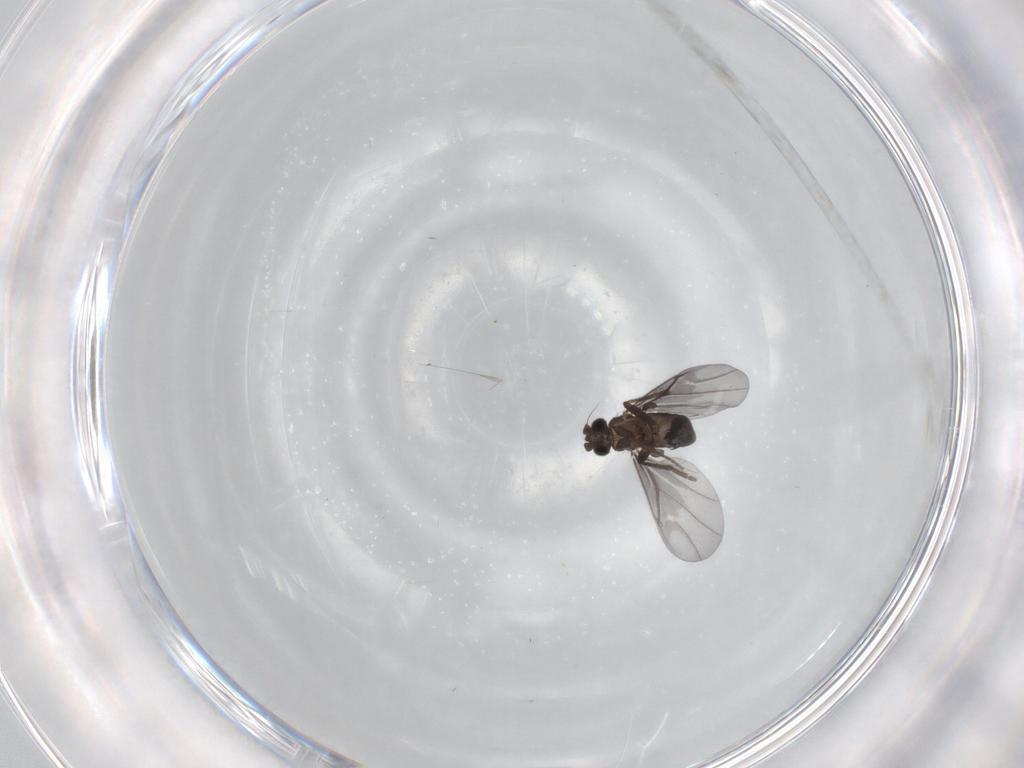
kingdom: Animalia
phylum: Arthropoda
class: Insecta
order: Diptera
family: Phoridae
